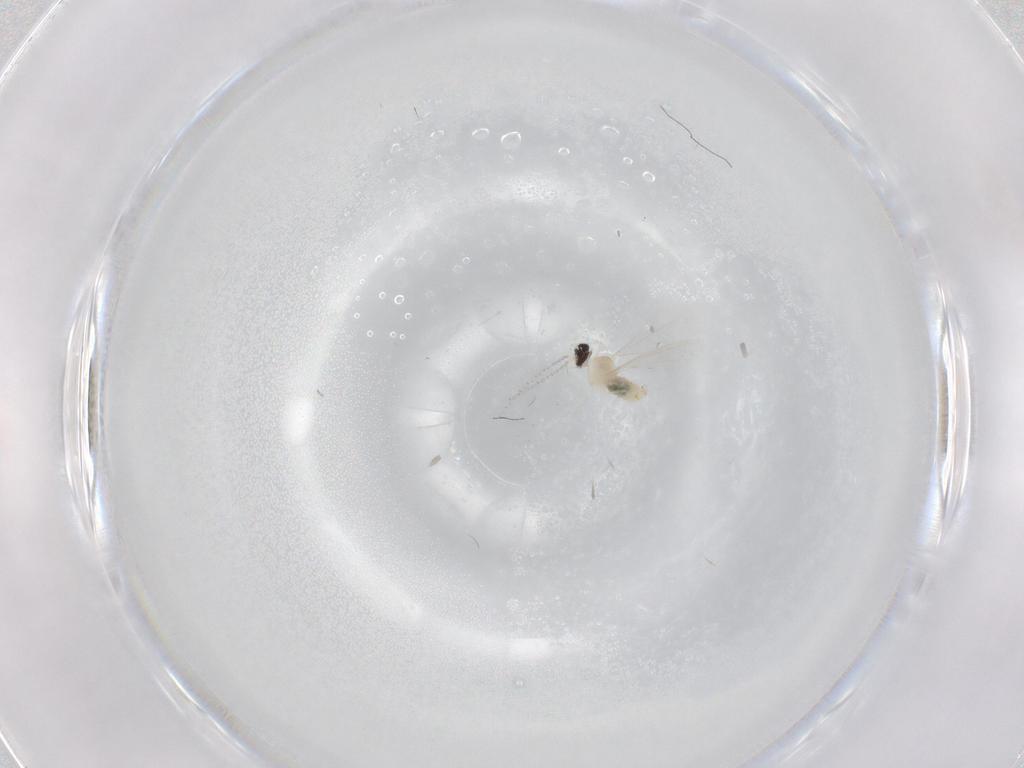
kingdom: Animalia
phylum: Arthropoda
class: Insecta
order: Diptera
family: Cecidomyiidae
